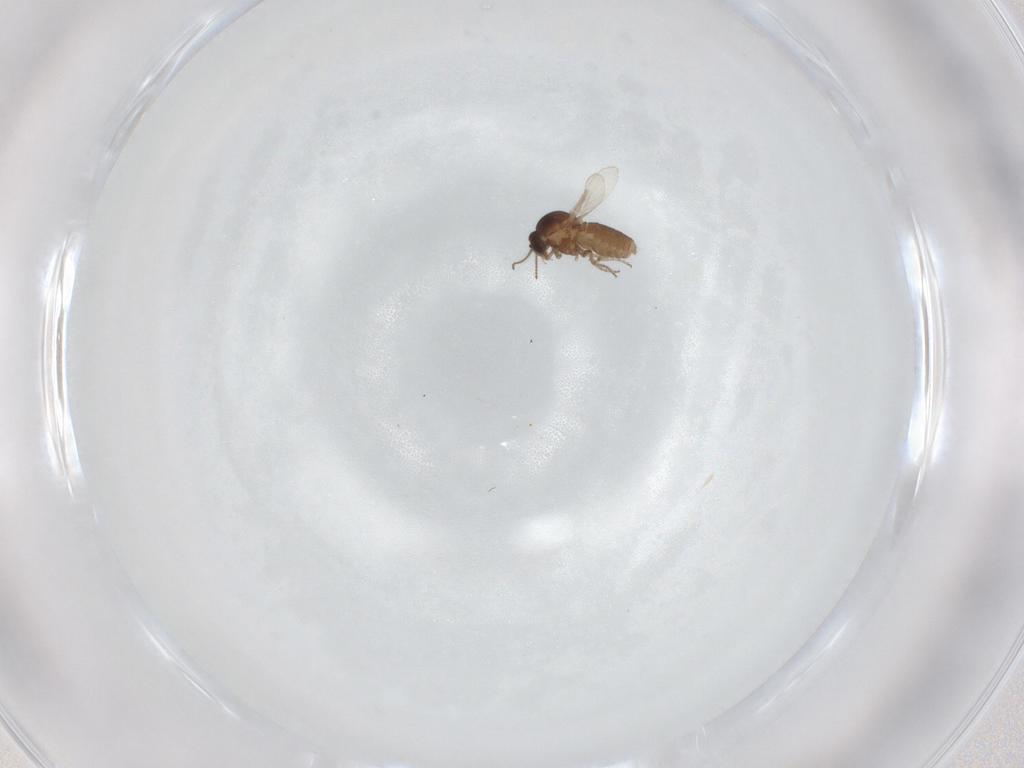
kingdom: Animalia
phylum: Arthropoda
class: Insecta
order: Diptera
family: Ceratopogonidae
